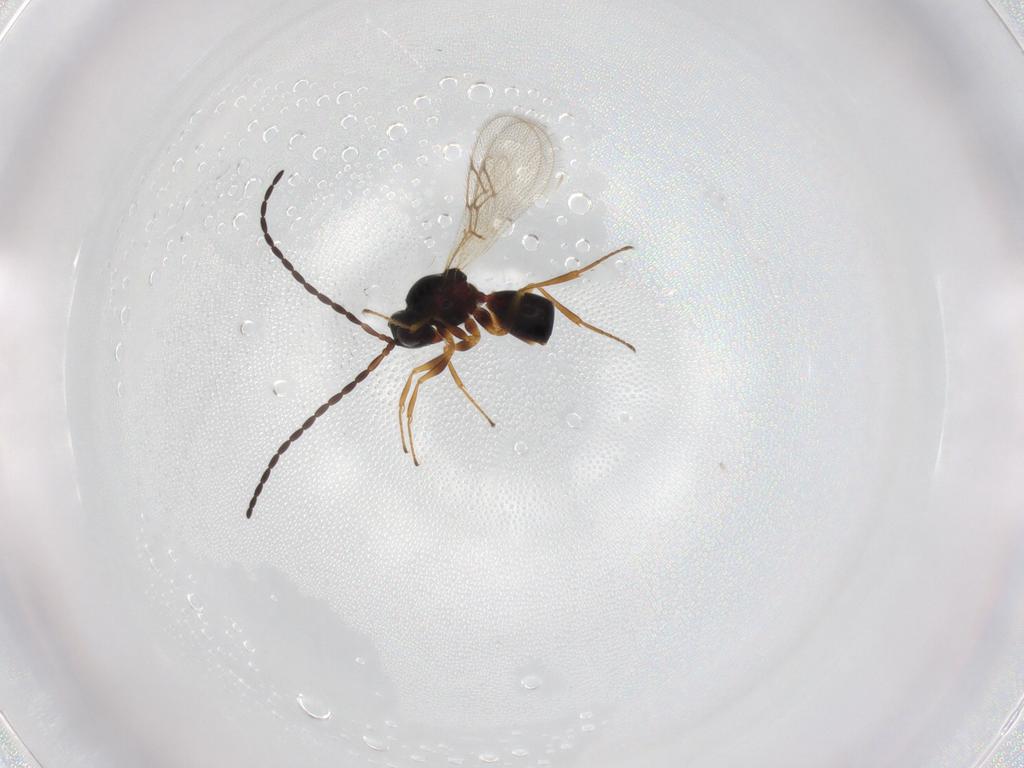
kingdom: Animalia
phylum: Arthropoda
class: Insecta
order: Hymenoptera
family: Figitidae
